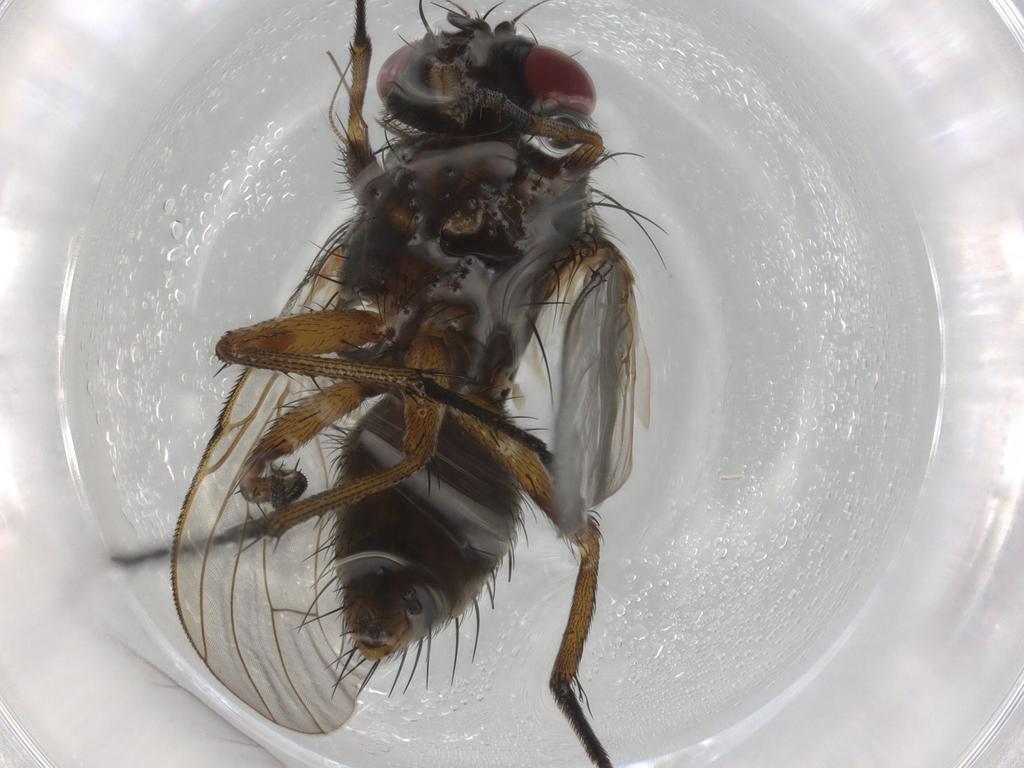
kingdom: Animalia
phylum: Arthropoda
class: Insecta
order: Diptera
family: Muscidae
